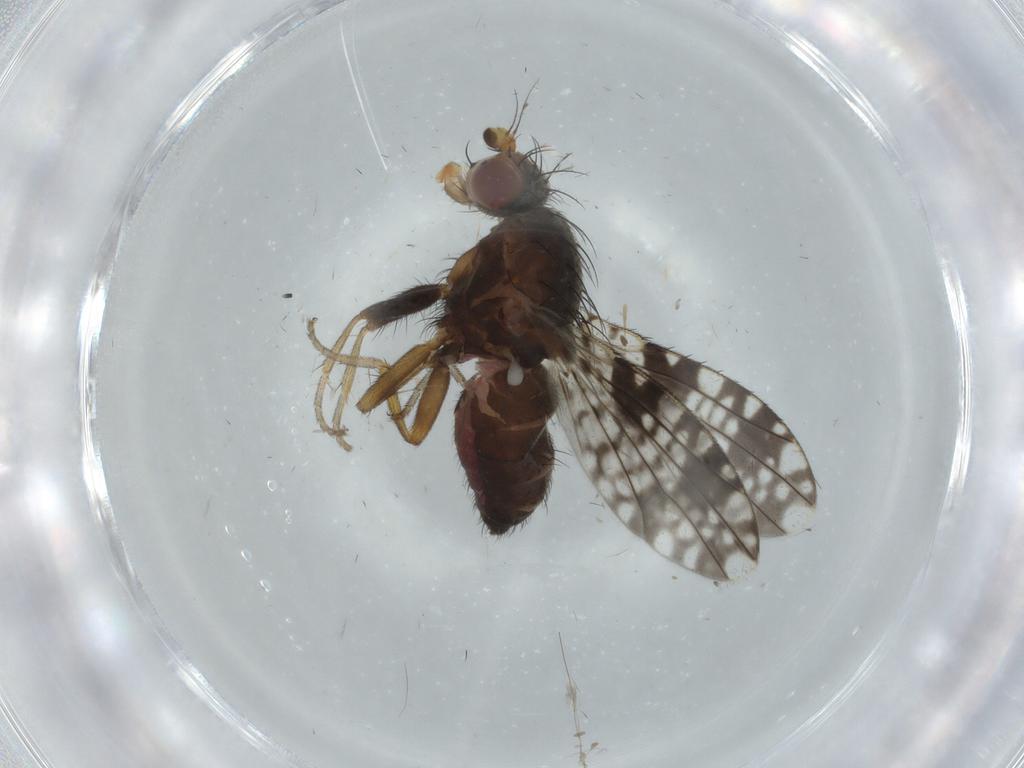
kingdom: Animalia
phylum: Arthropoda
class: Insecta
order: Diptera
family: Tephritidae
